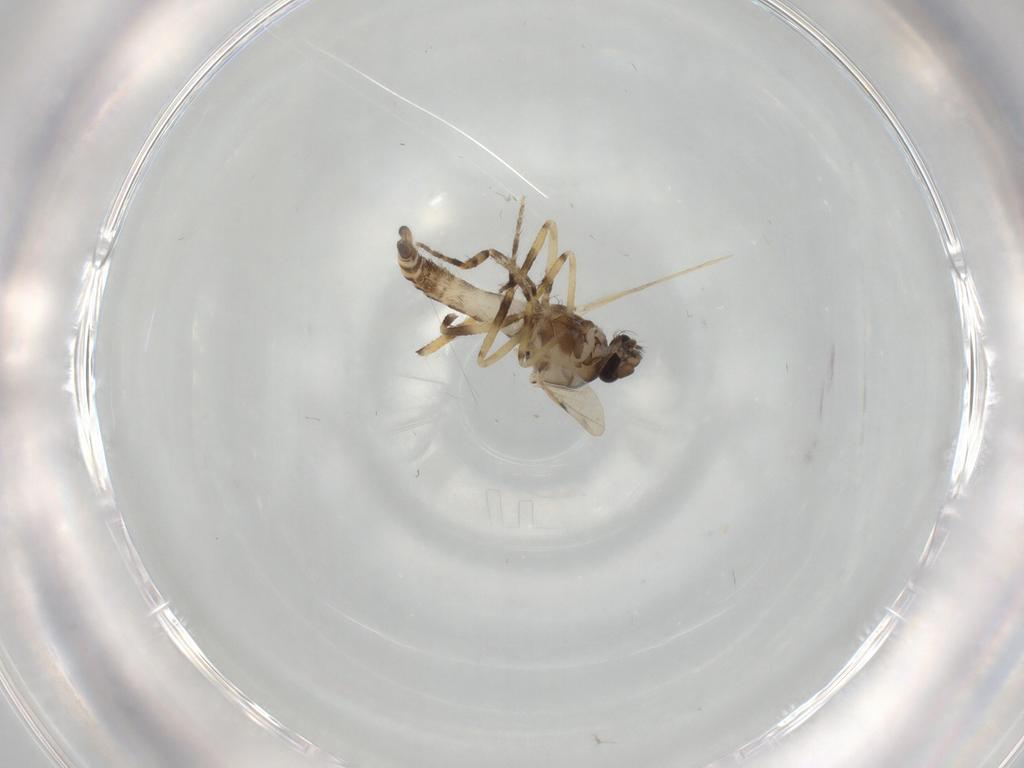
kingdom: Animalia
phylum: Arthropoda
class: Insecta
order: Diptera
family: Ceratopogonidae
